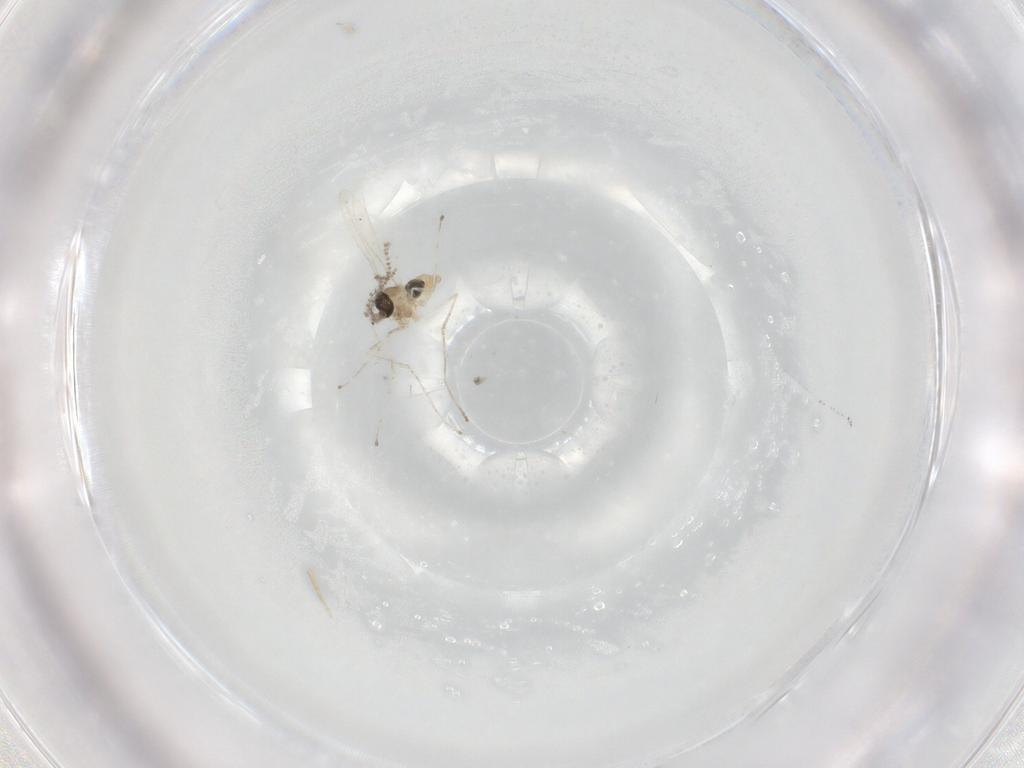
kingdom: Animalia
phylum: Arthropoda
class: Insecta
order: Diptera
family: Cecidomyiidae
